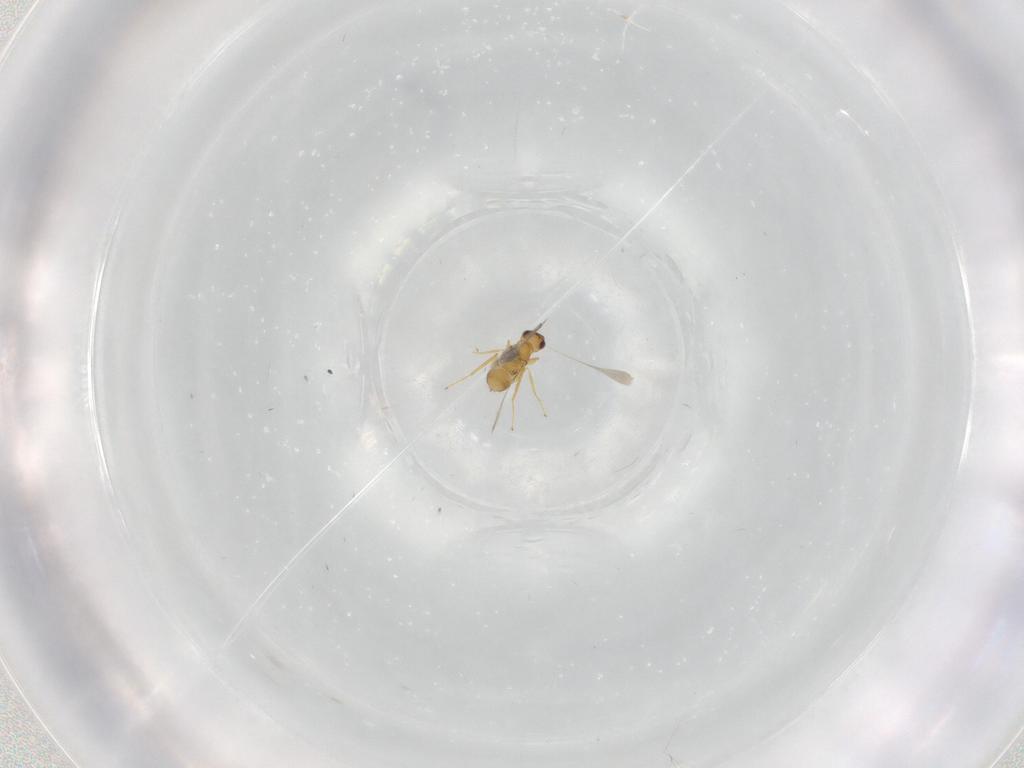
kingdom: Animalia
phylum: Arthropoda
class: Insecta
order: Hymenoptera
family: Mymaridae
